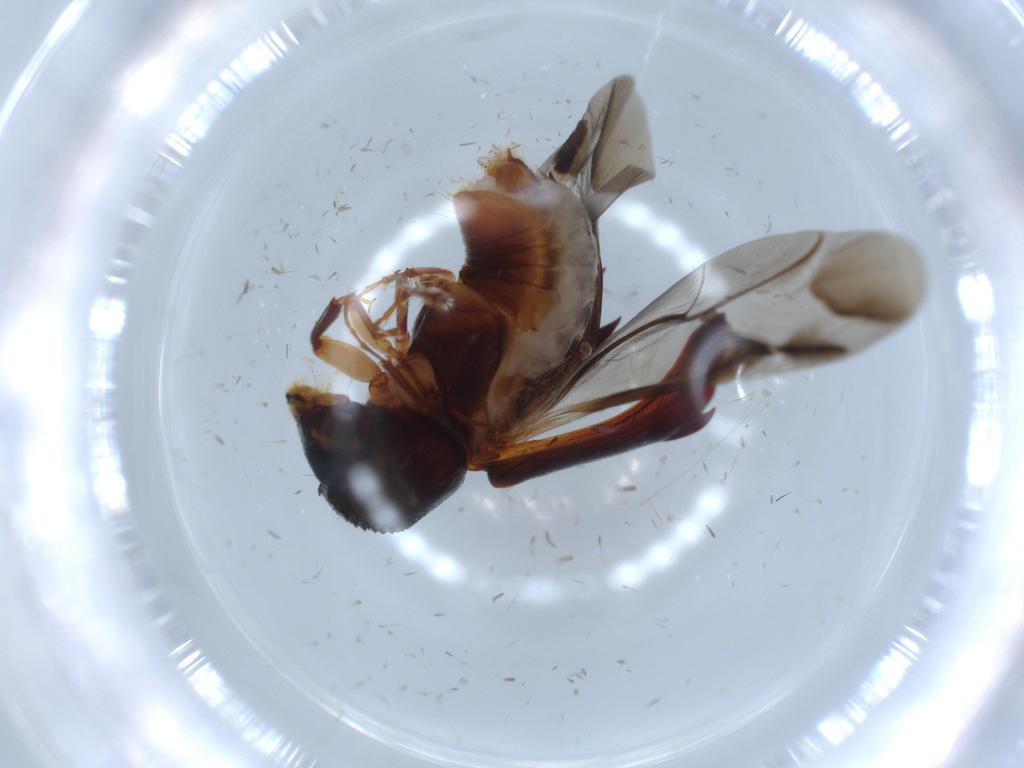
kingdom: Animalia
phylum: Arthropoda
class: Insecta
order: Coleoptera
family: Bostrichidae
